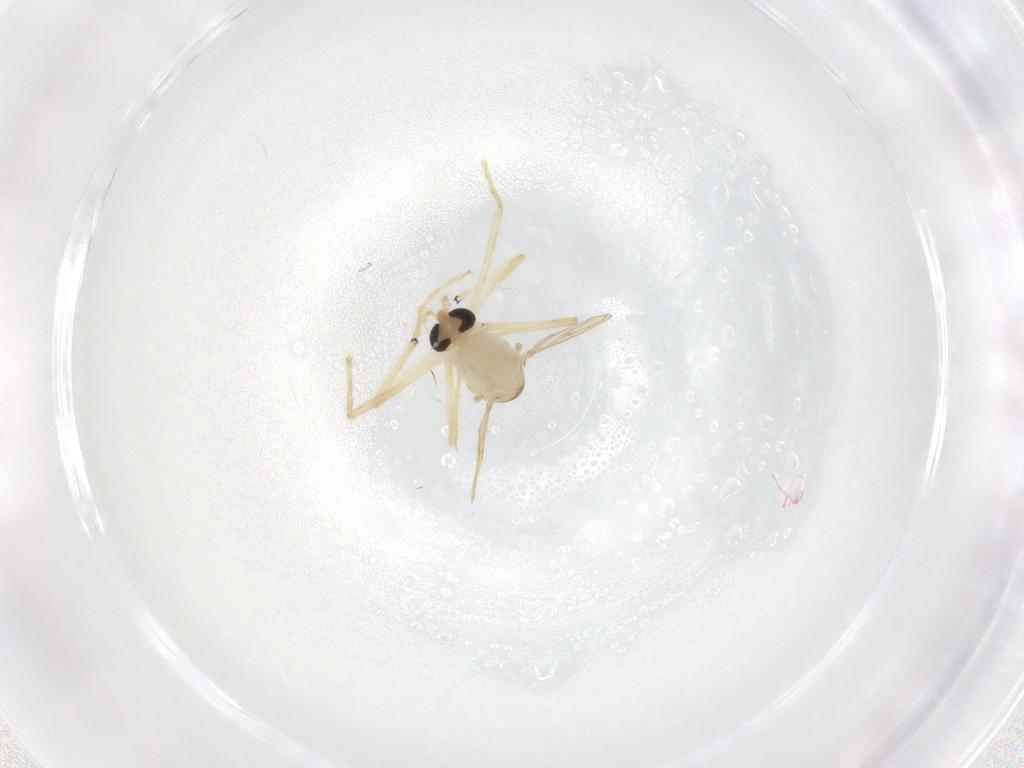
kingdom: Animalia
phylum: Arthropoda
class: Insecta
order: Diptera
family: Chironomidae
